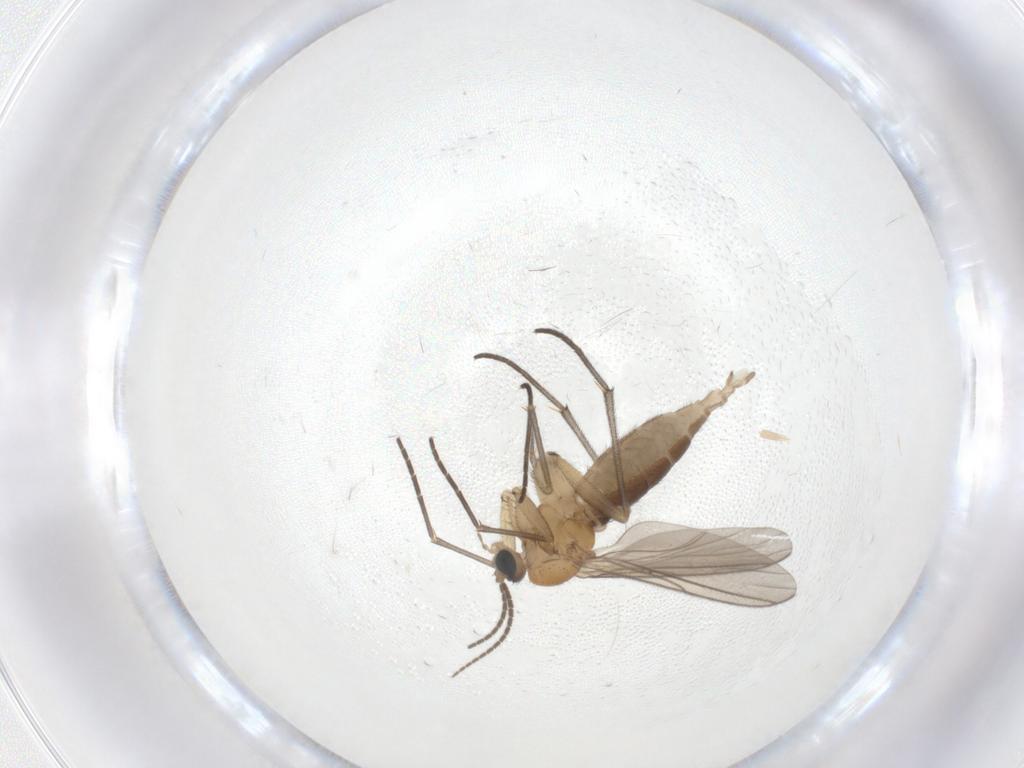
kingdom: Animalia
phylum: Arthropoda
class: Insecta
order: Diptera
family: Sciaridae
